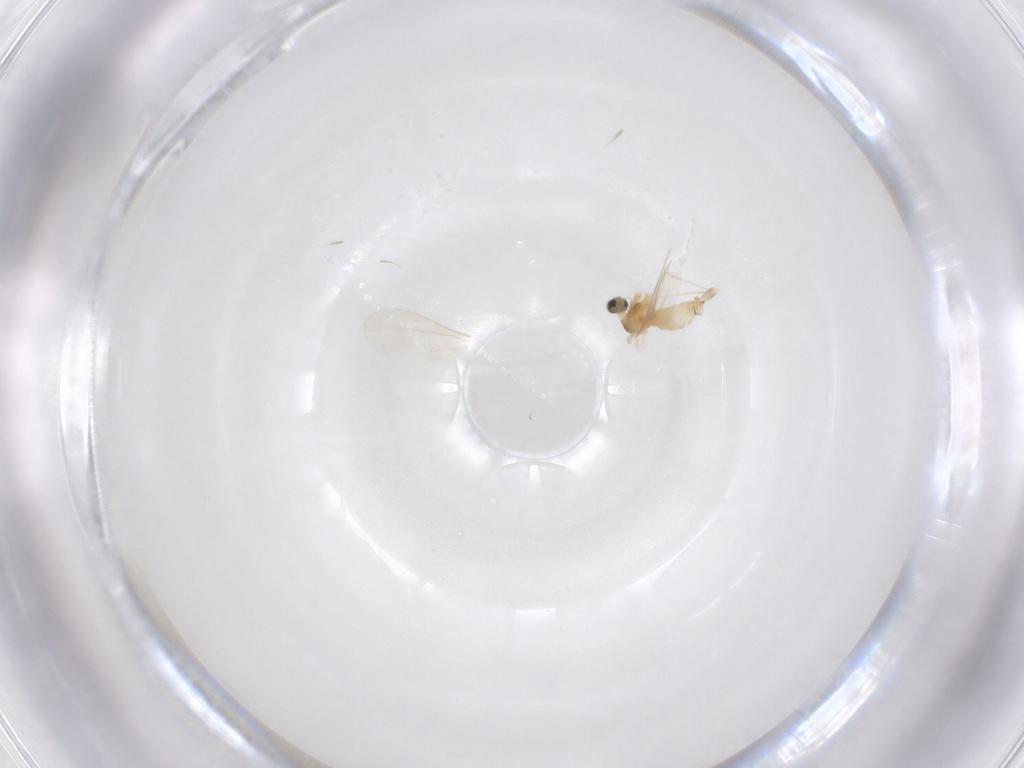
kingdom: Animalia
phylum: Arthropoda
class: Insecta
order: Diptera
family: Cecidomyiidae
